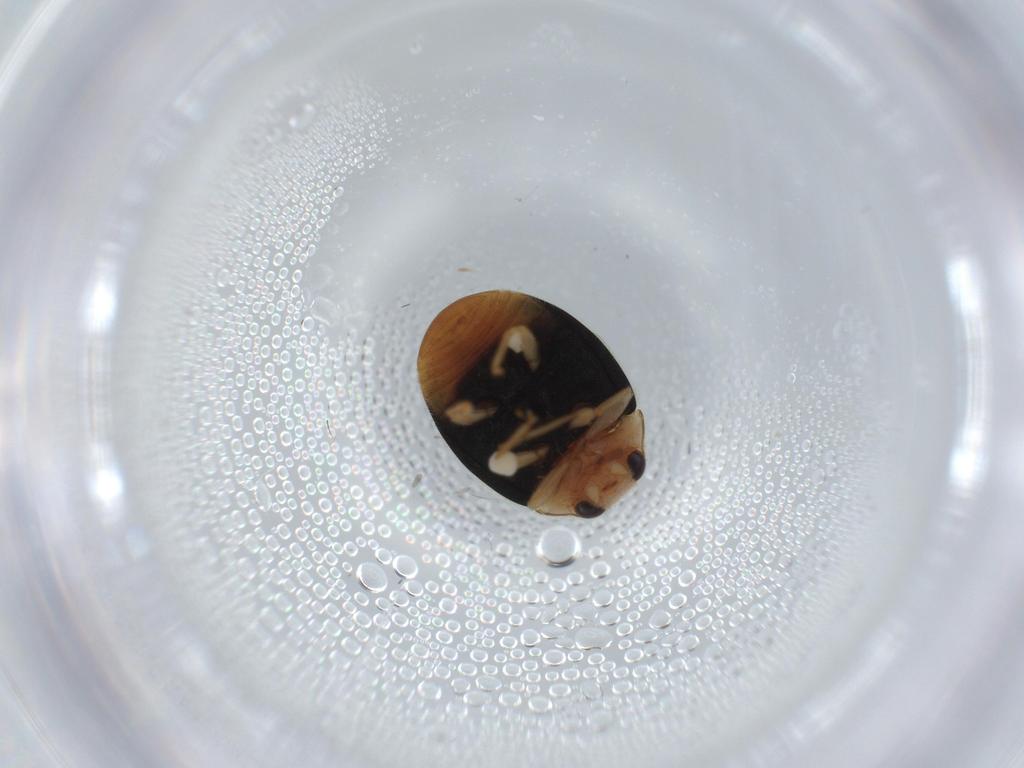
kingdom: Animalia
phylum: Arthropoda
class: Insecta
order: Coleoptera
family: Coccinellidae
